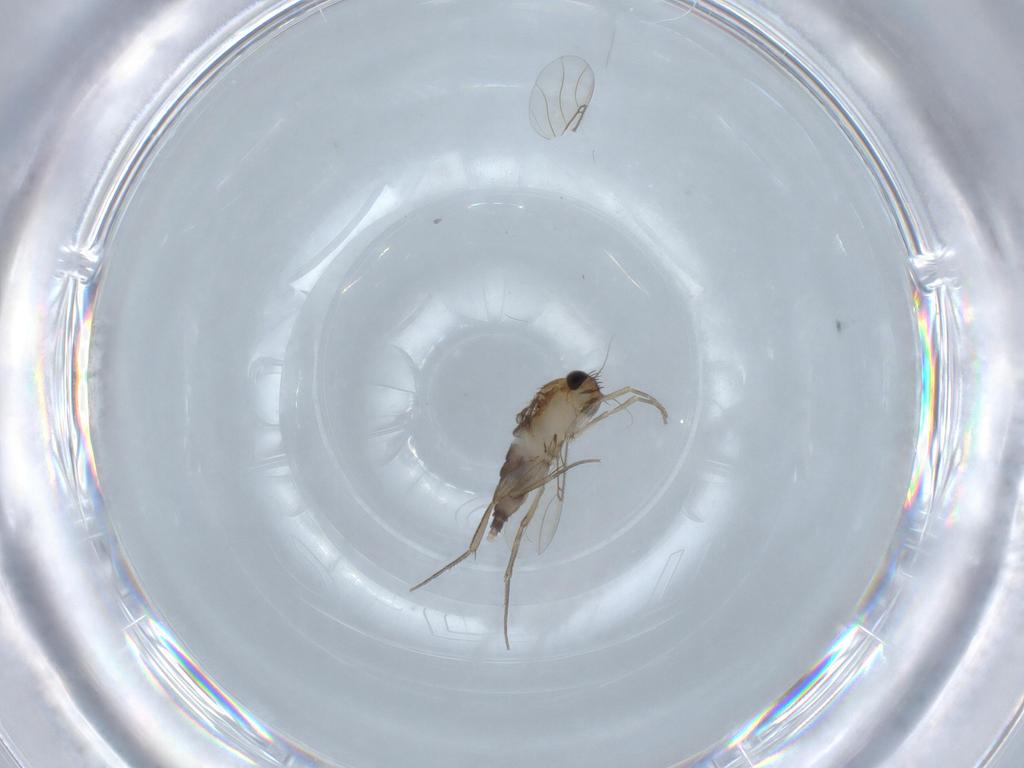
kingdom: Animalia
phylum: Arthropoda
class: Insecta
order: Diptera
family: Phoridae
